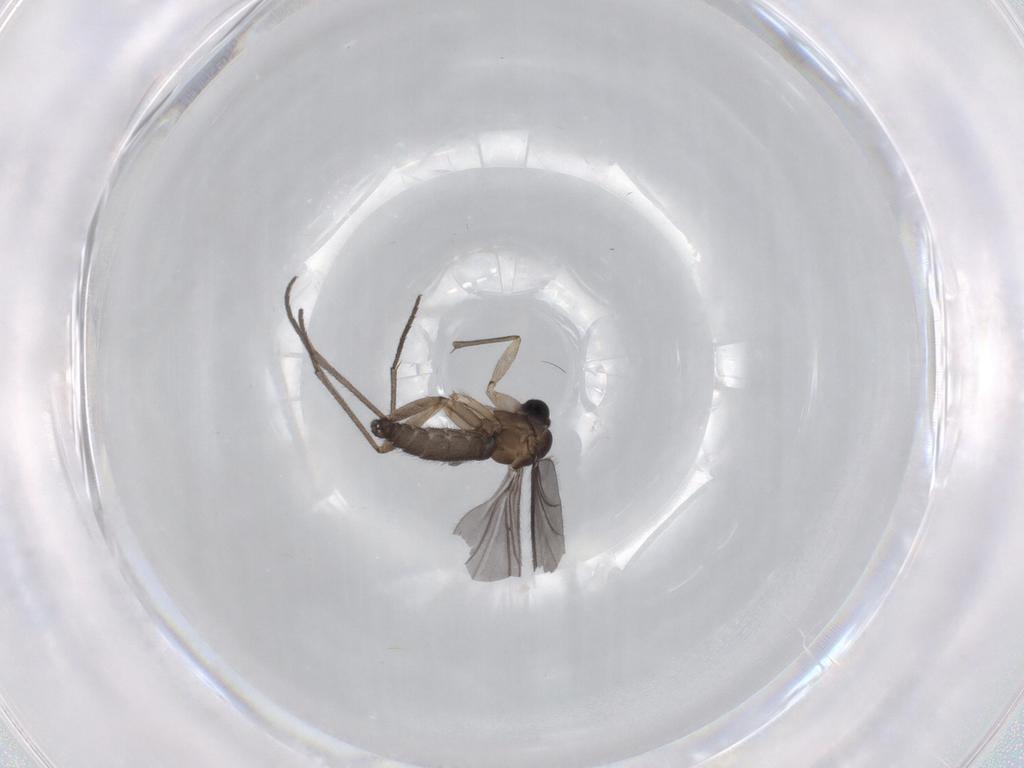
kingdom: Animalia
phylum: Arthropoda
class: Insecta
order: Diptera
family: Sciaridae
